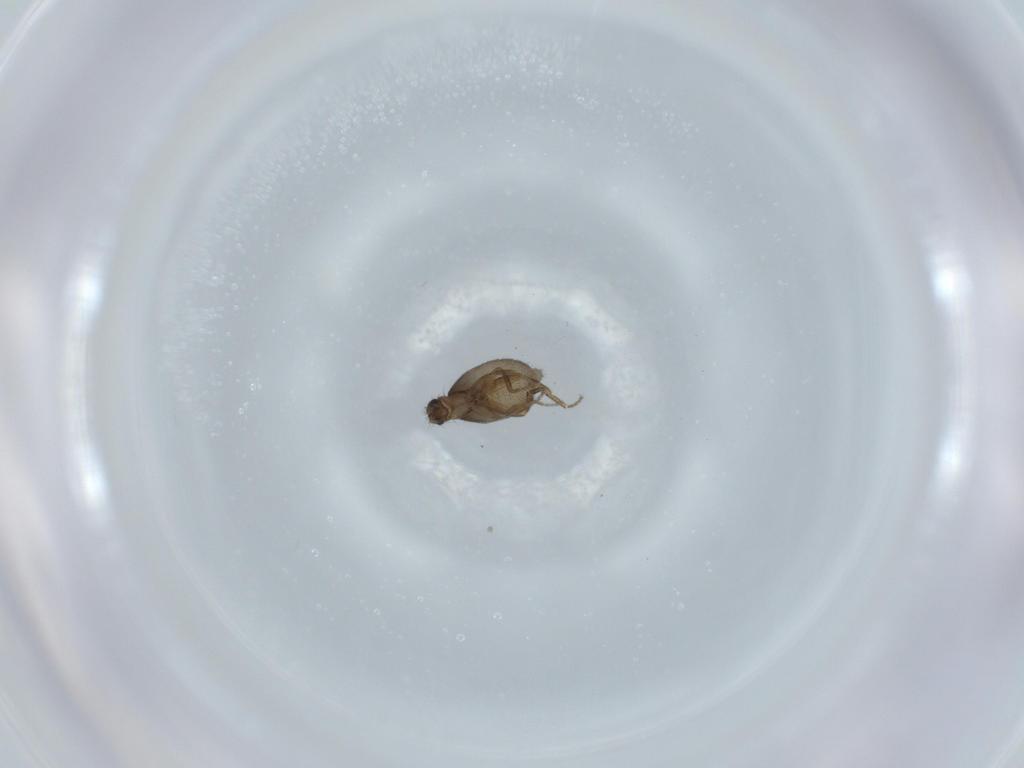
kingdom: Animalia
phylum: Arthropoda
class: Insecta
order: Diptera
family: Phoridae
